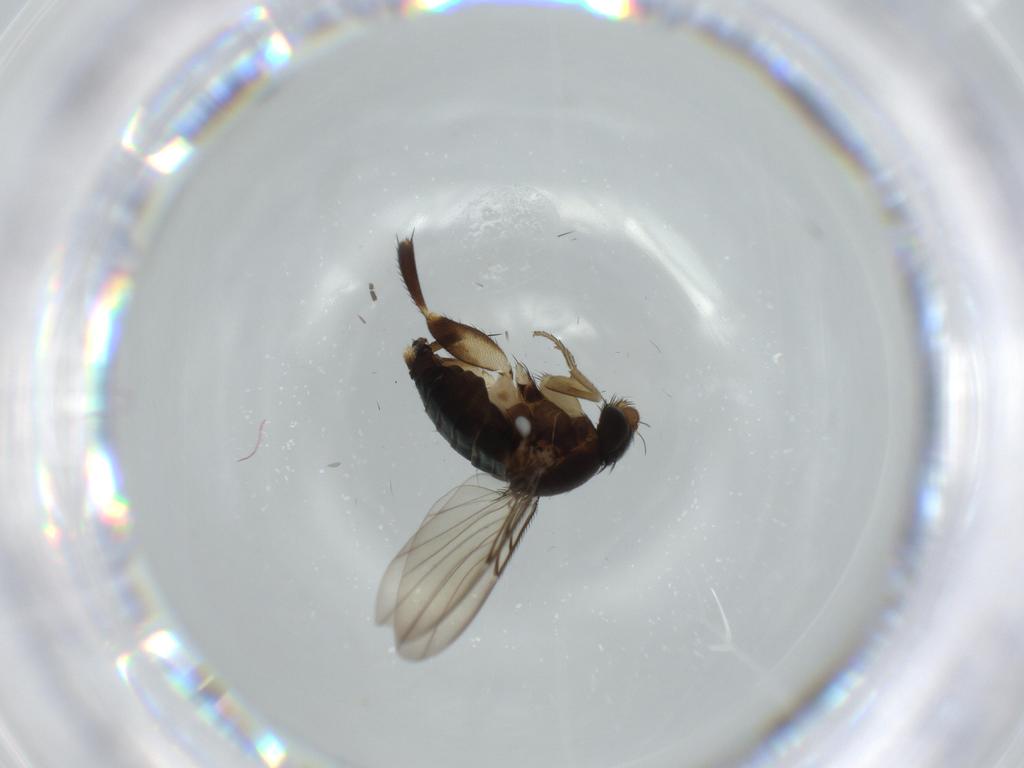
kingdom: Animalia
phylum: Arthropoda
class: Insecta
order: Diptera
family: Phoridae
